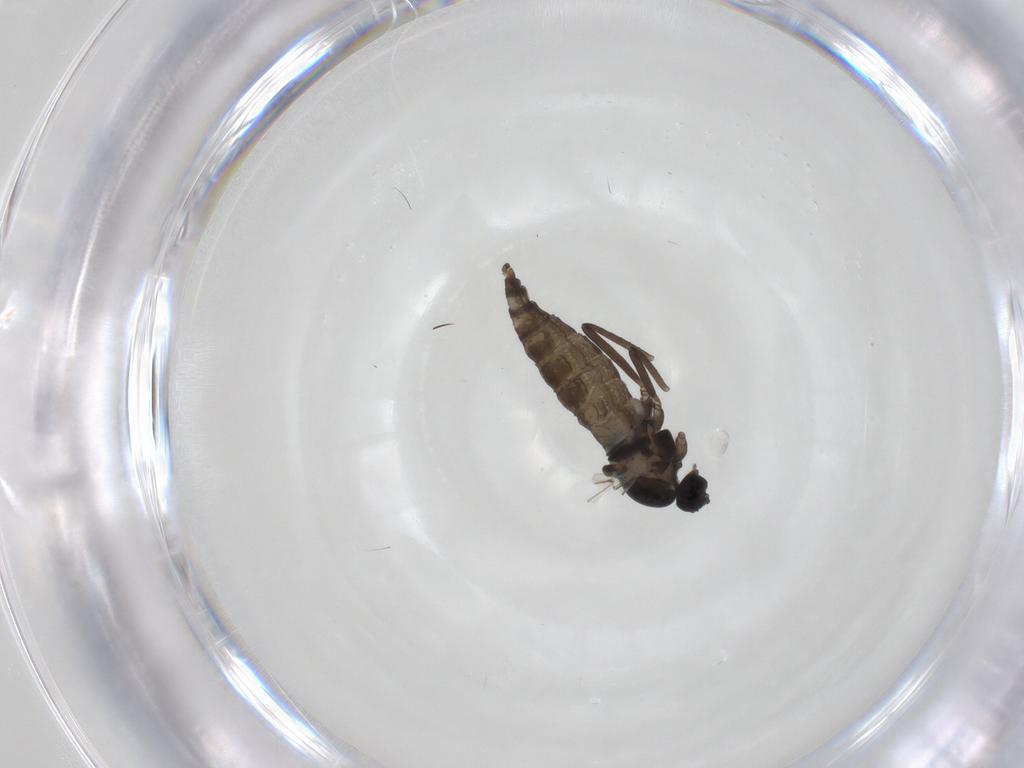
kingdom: Animalia
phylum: Arthropoda
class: Insecta
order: Diptera
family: Cecidomyiidae
